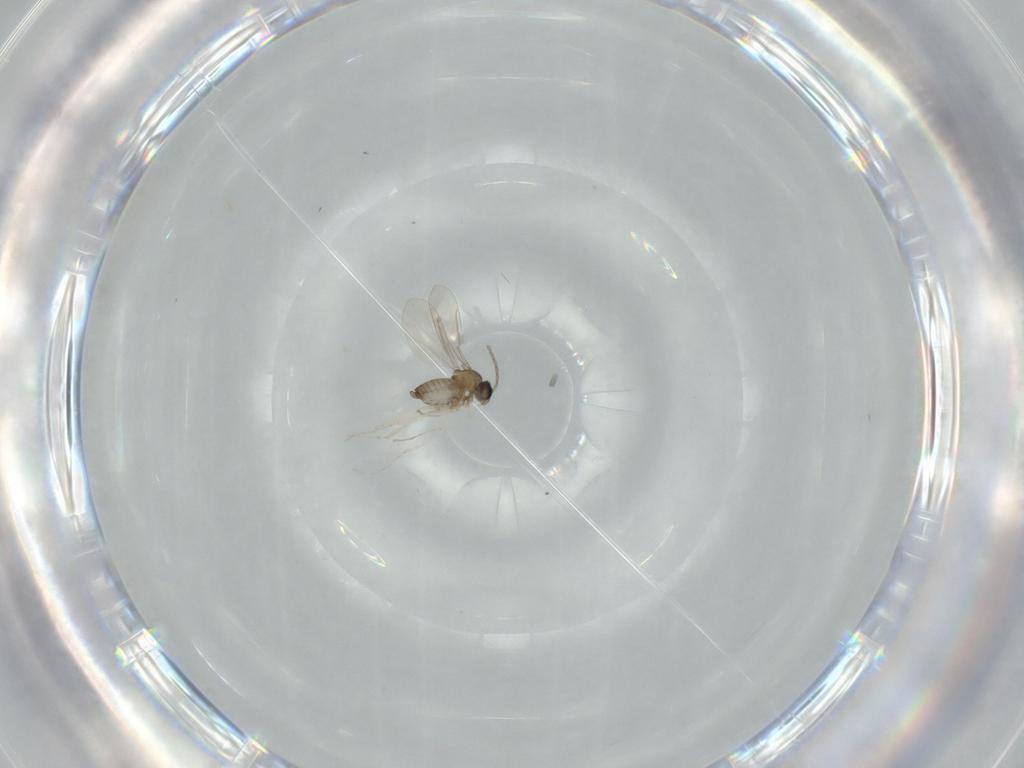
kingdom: Animalia
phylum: Arthropoda
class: Insecta
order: Diptera
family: Cecidomyiidae
